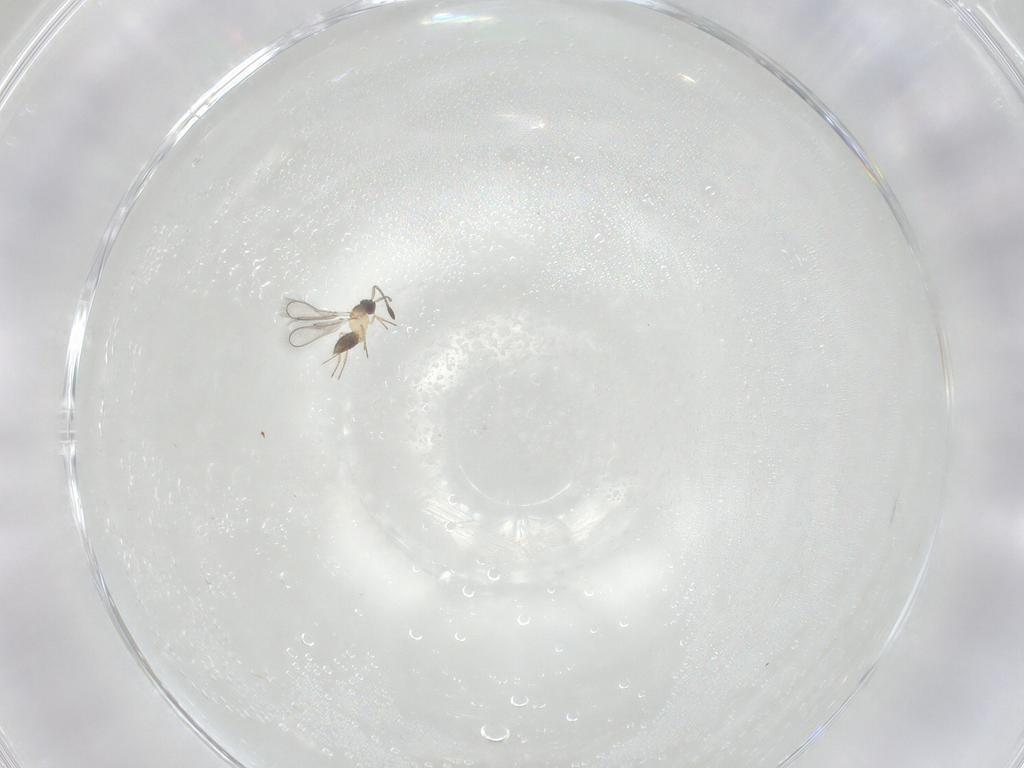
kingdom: Animalia
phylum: Arthropoda
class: Insecta
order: Hymenoptera
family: Mymaridae
